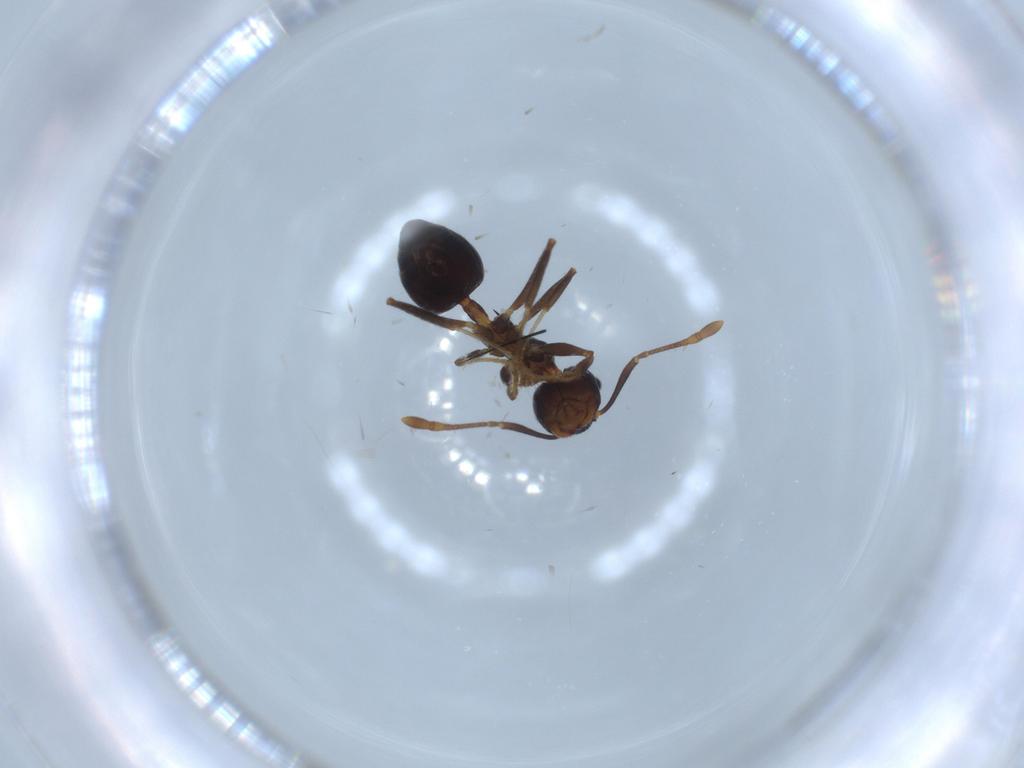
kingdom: Animalia
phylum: Arthropoda
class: Insecta
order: Hymenoptera
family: Formicidae
